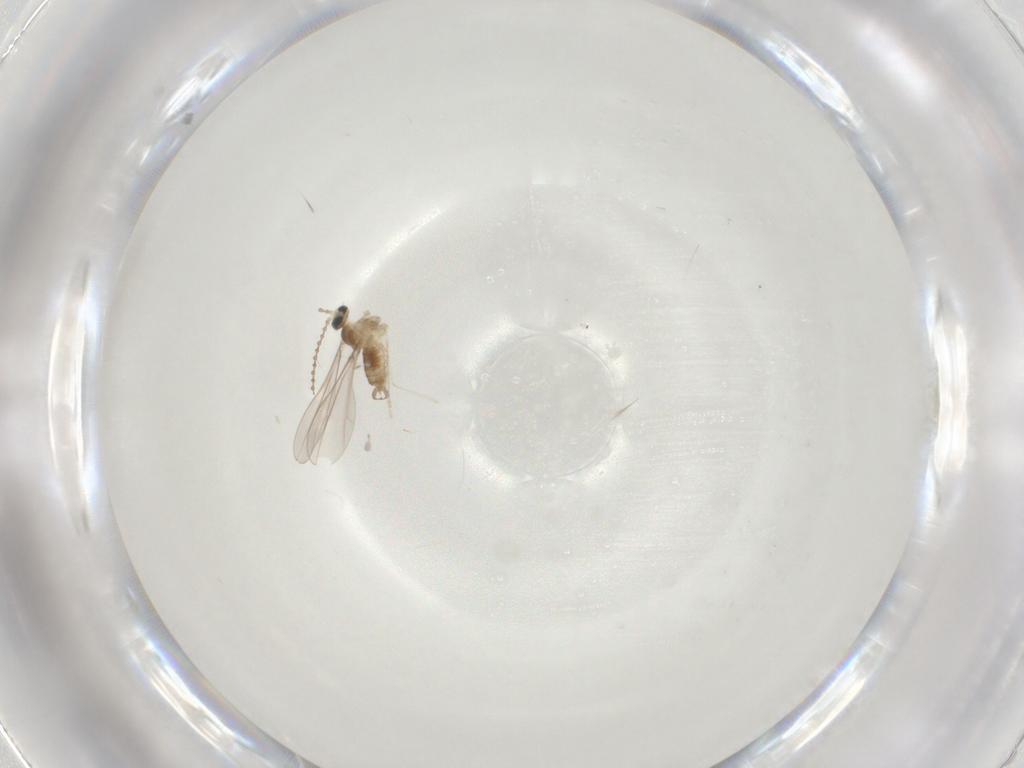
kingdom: Animalia
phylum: Arthropoda
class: Insecta
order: Diptera
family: Cecidomyiidae
